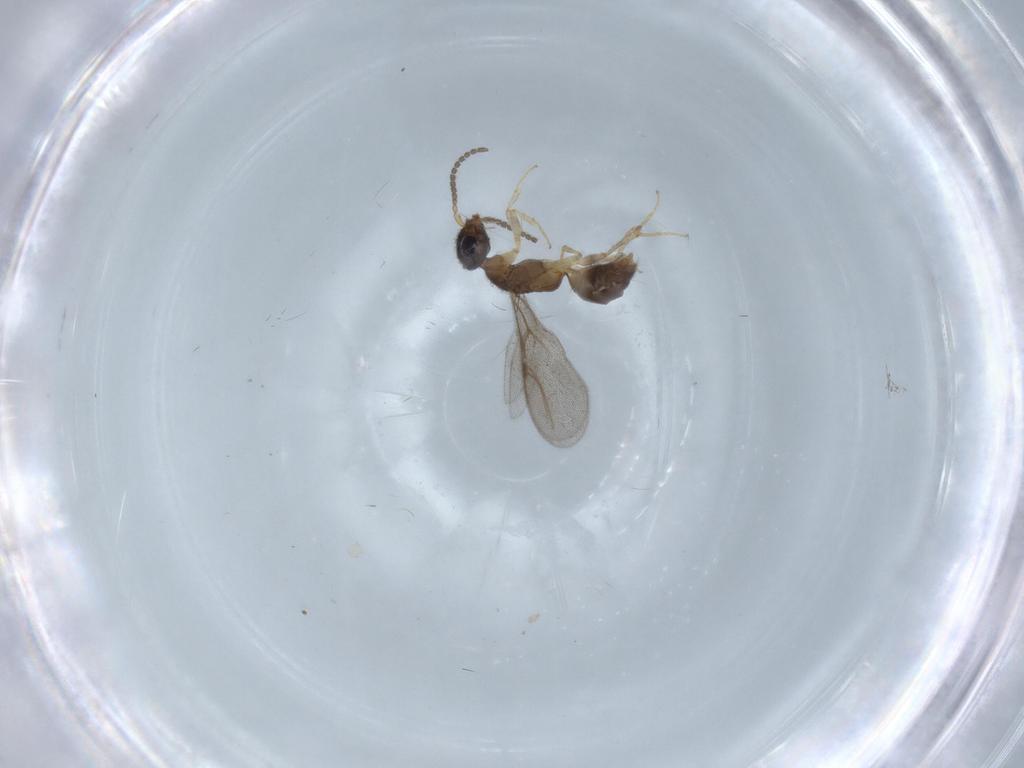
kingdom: Animalia
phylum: Arthropoda
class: Insecta
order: Hymenoptera
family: Bethylidae
